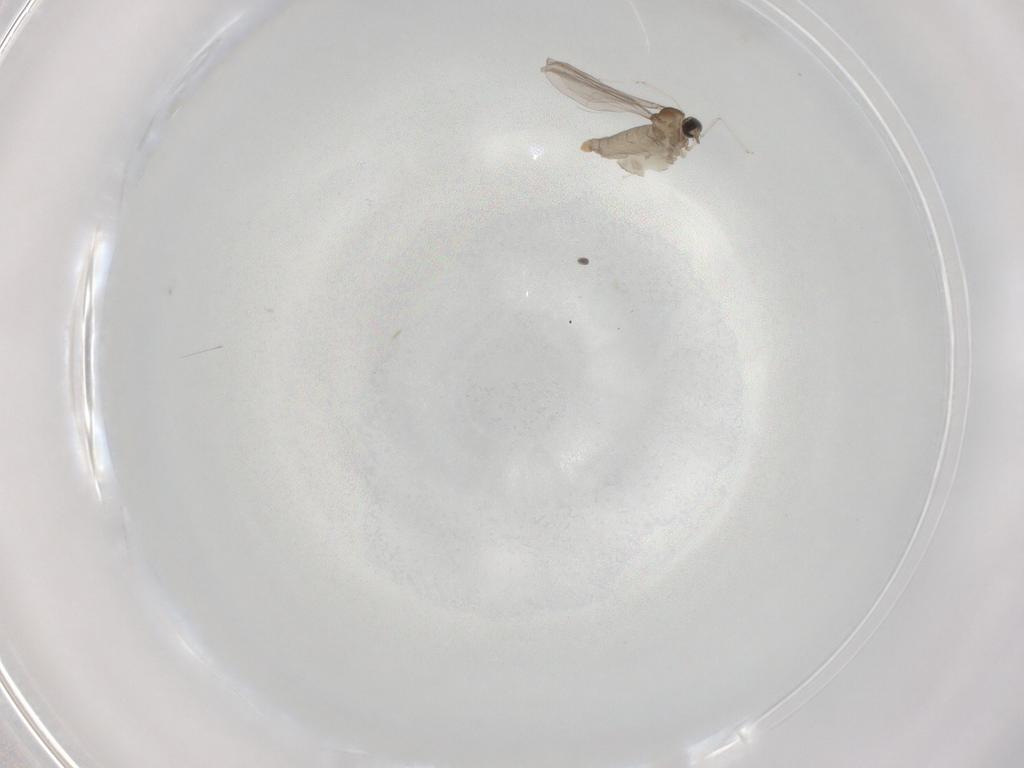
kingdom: Animalia
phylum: Arthropoda
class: Insecta
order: Diptera
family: Cecidomyiidae
